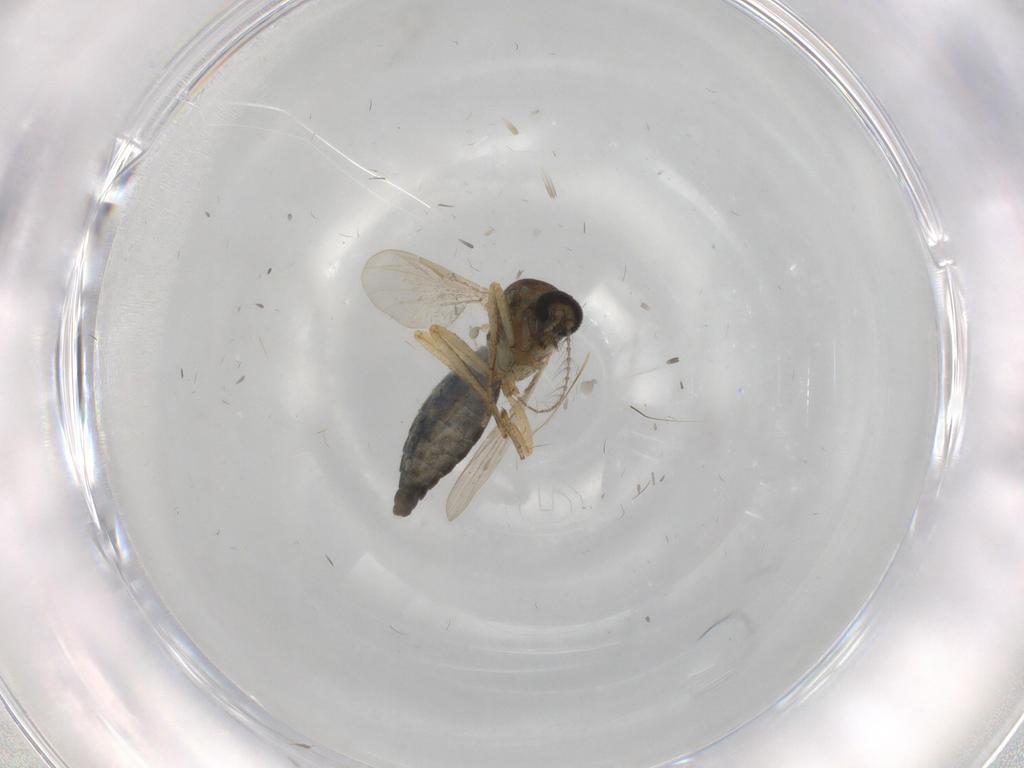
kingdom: Animalia
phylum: Arthropoda
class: Insecta
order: Diptera
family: Ceratopogonidae
